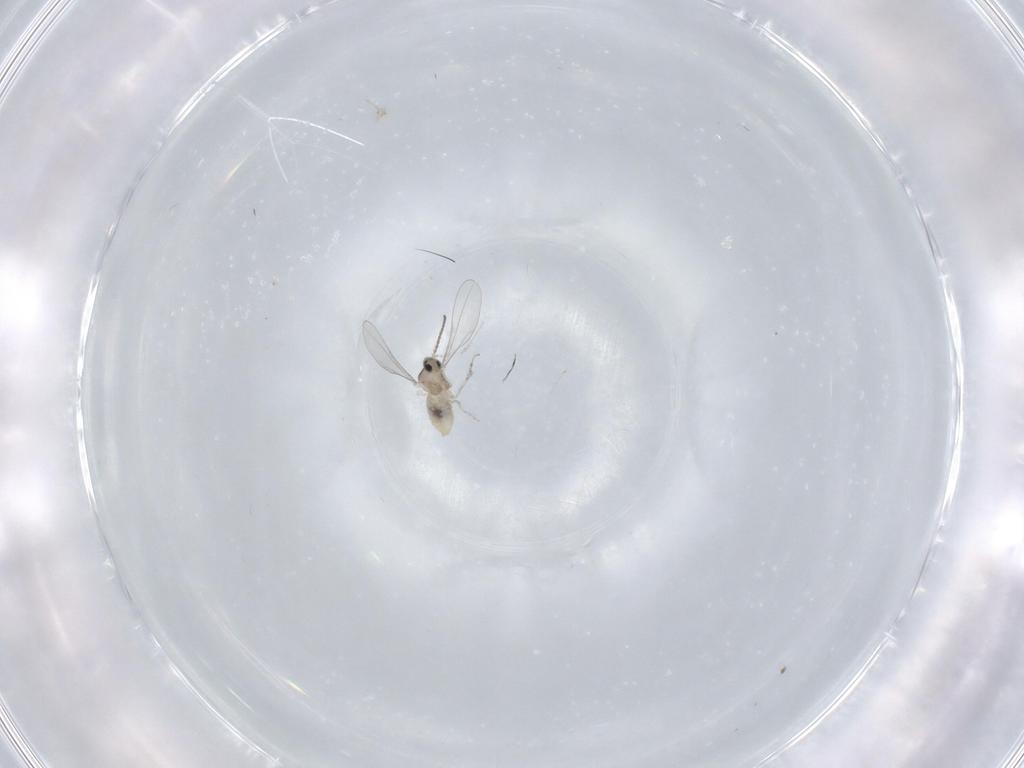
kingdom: Animalia
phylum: Arthropoda
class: Insecta
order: Diptera
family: Cecidomyiidae
